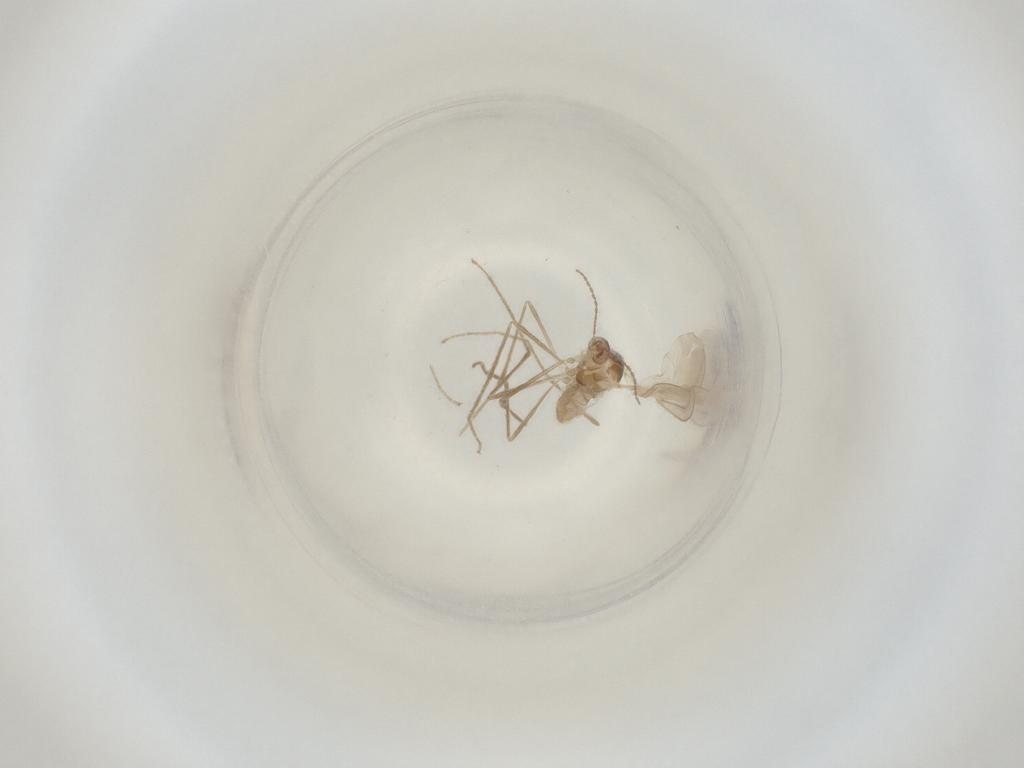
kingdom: Animalia
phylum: Arthropoda
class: Insecta
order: Diptera
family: Cecidomyiidae
